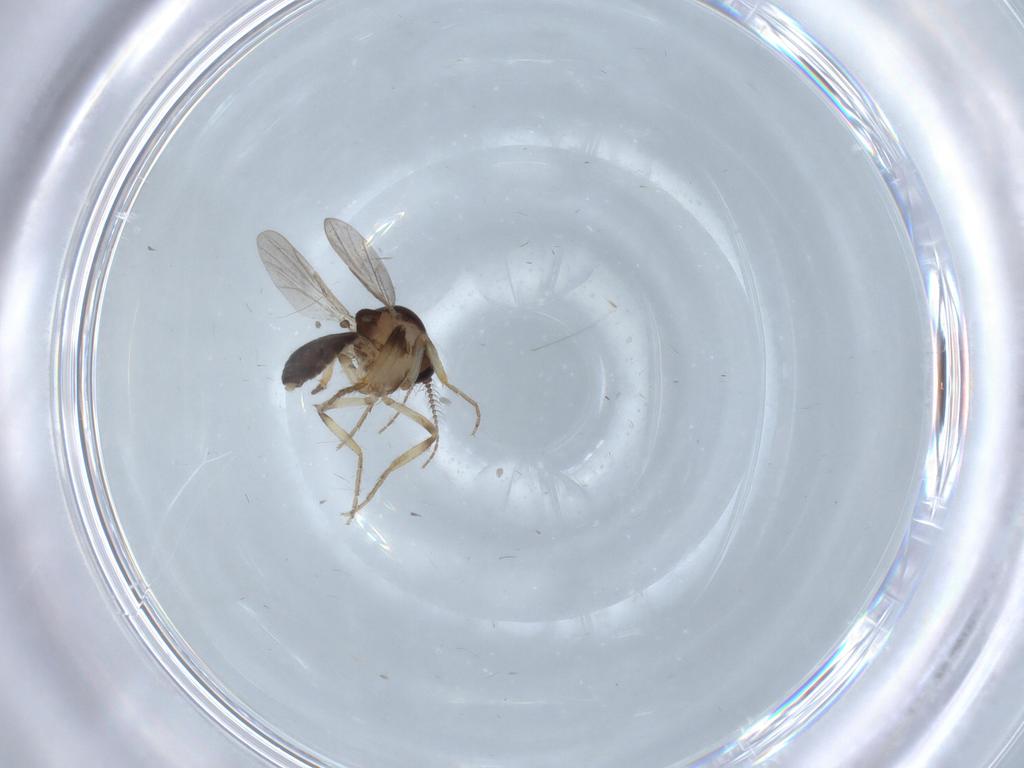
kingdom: Animalia
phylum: Arthropoda
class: Insecta
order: Diptera
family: Ceratopogonidae
